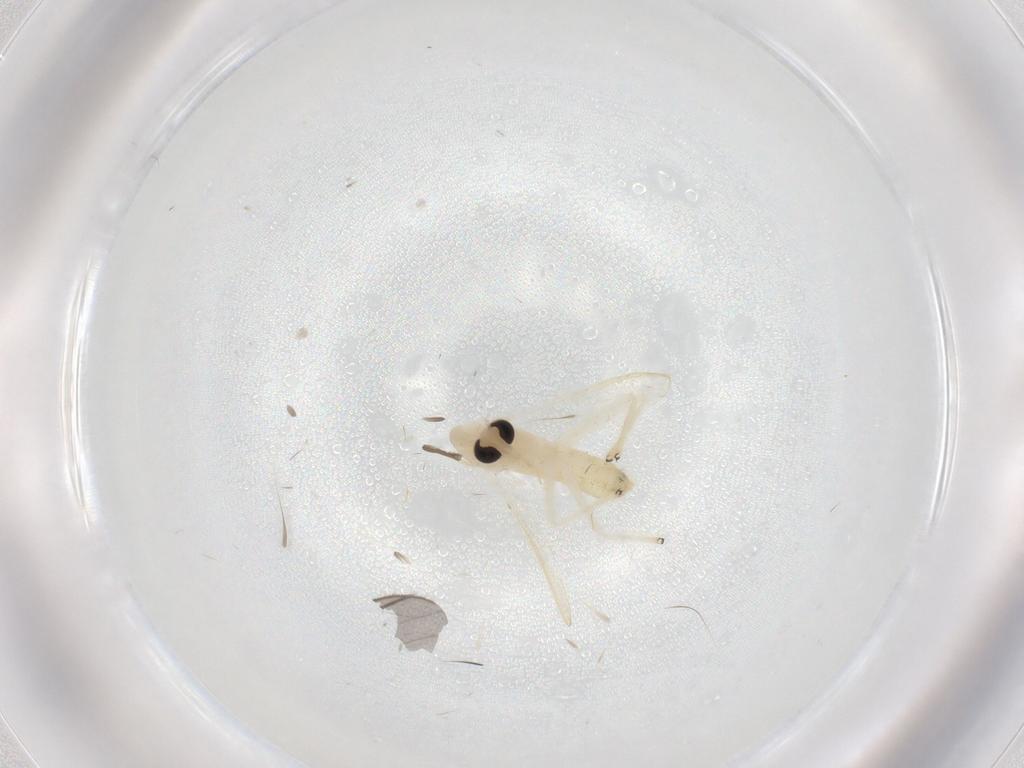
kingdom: Animalia
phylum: Arthropoda
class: Insecta
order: Diptera
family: Chironomidae
